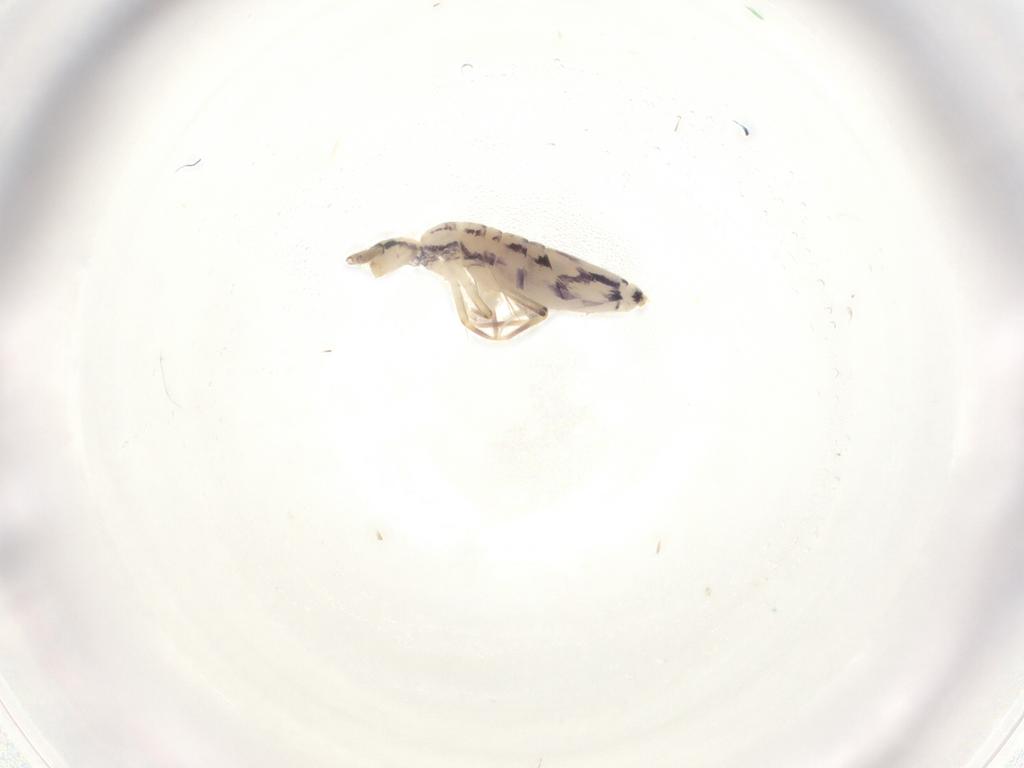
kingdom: Animalia
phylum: Arthropoda
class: Collembola
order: Entomobryomorpha
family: Entomobryidae
